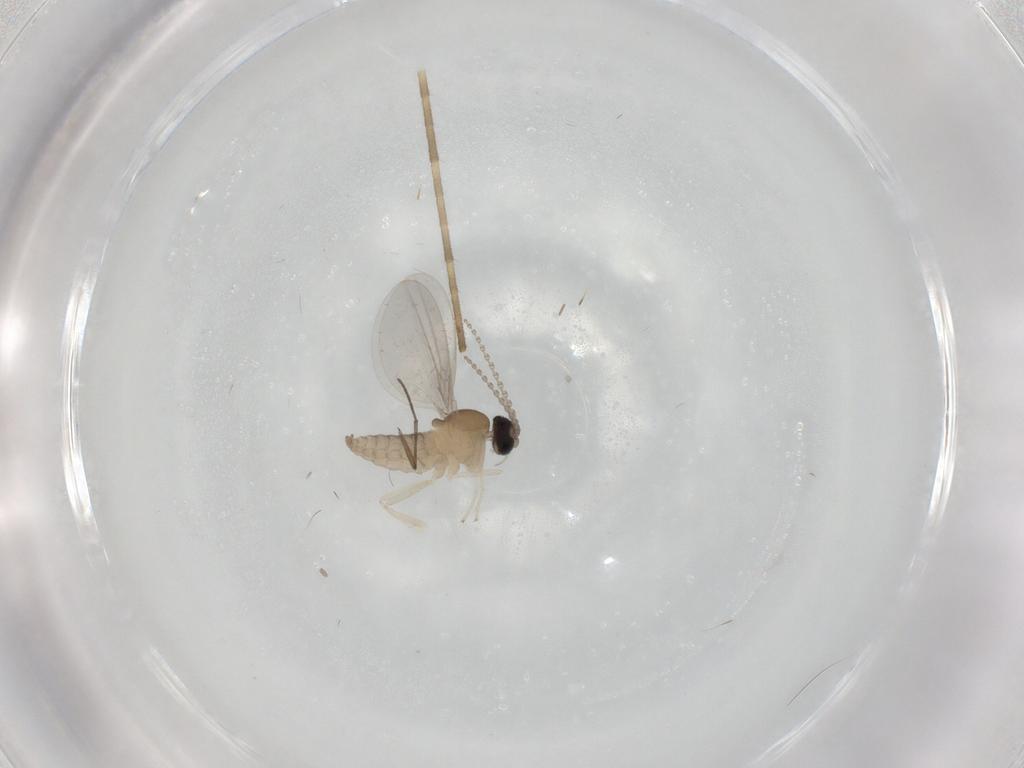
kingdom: Animalia
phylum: Arthropoda
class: Insecta
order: Diptera
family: Cecidomyiidae
